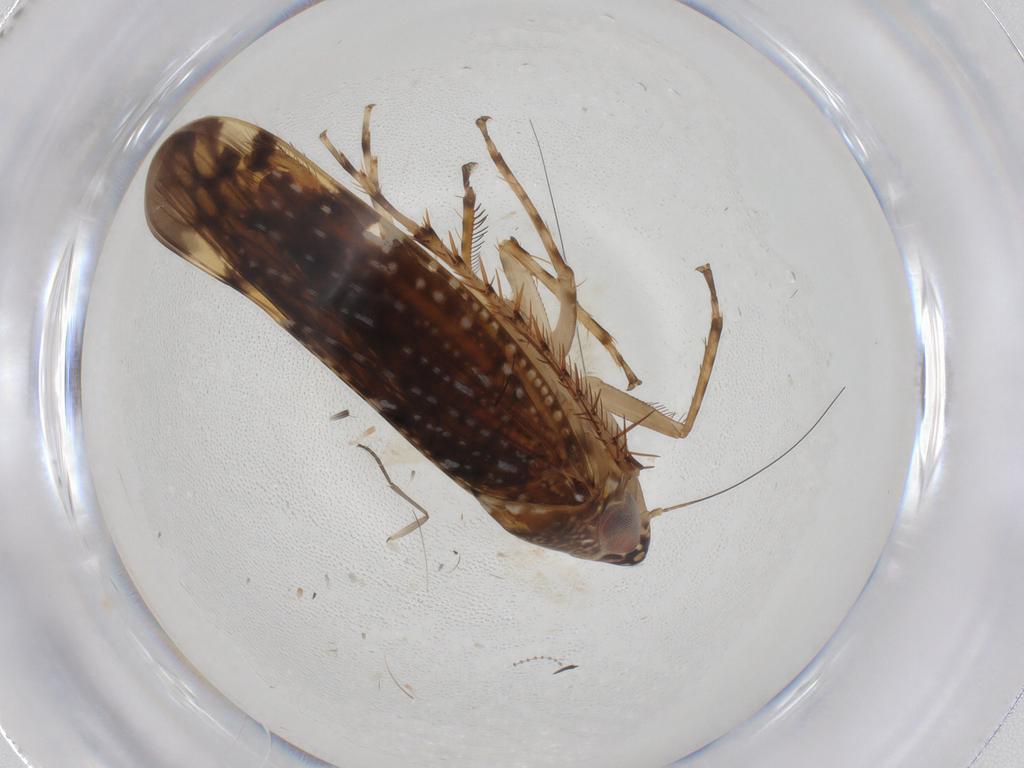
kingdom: Animalia
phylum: Arthropoda
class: Insecta
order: Hemiptera
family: Cicadellidae
